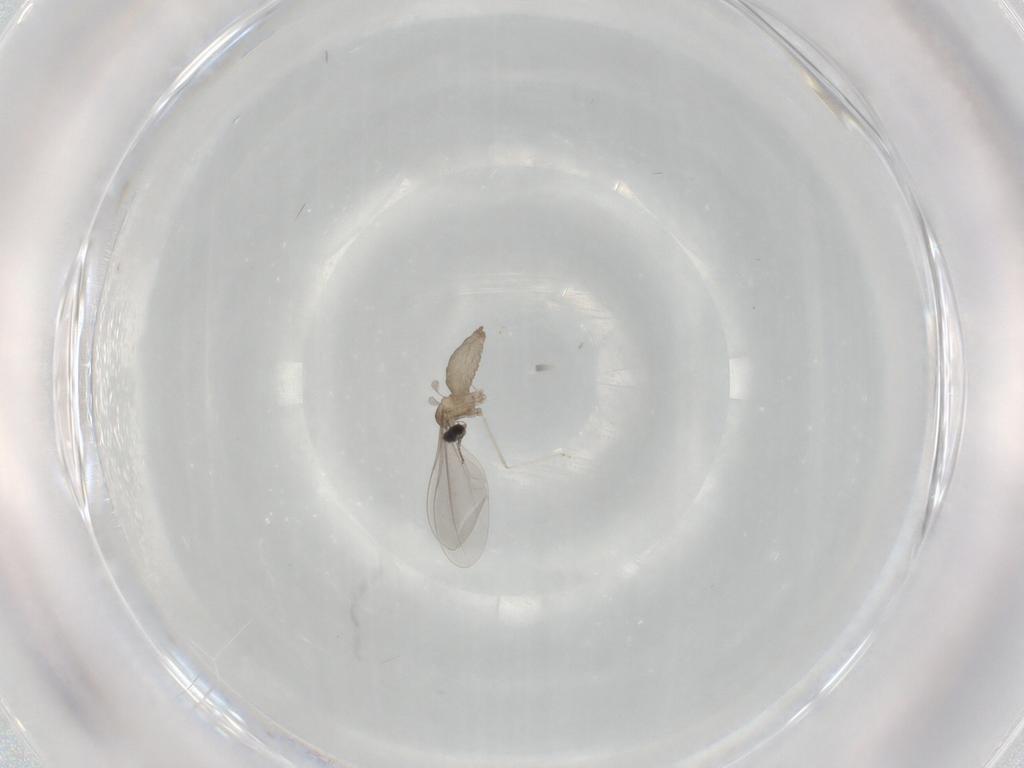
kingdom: Animalia
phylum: Arthropoda
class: Insecta
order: Diptera
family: Cecidomyiidae
